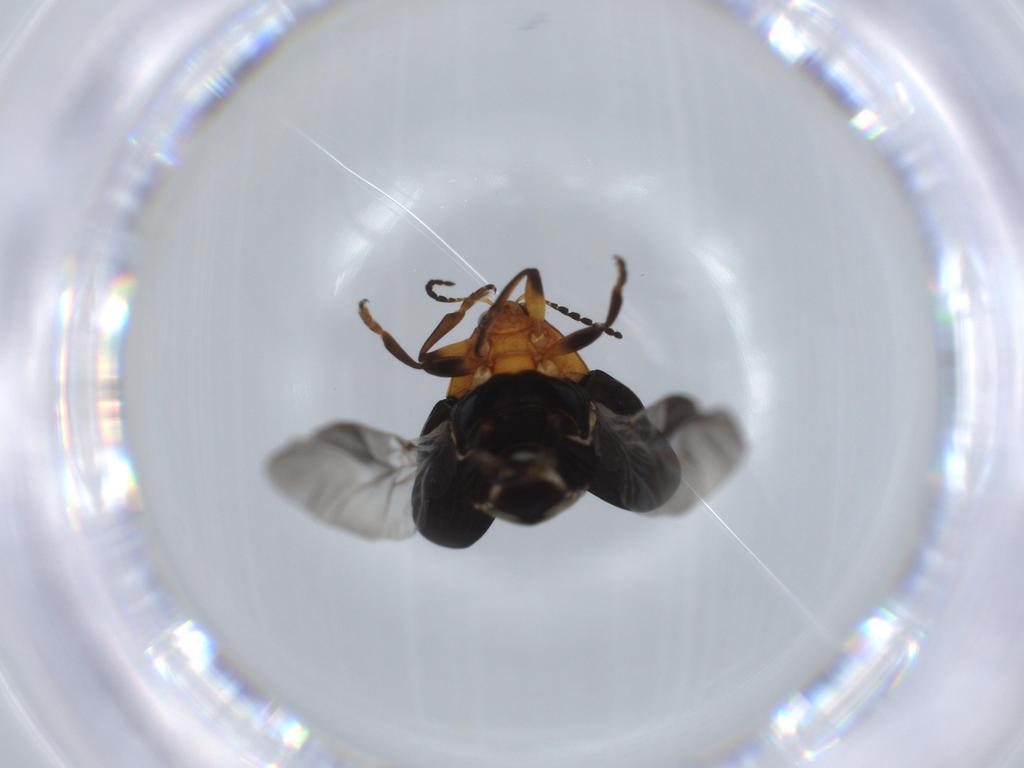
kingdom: Animalia
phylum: Arthropoda
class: Insecta
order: Coleoptera
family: Chrysomelidae
